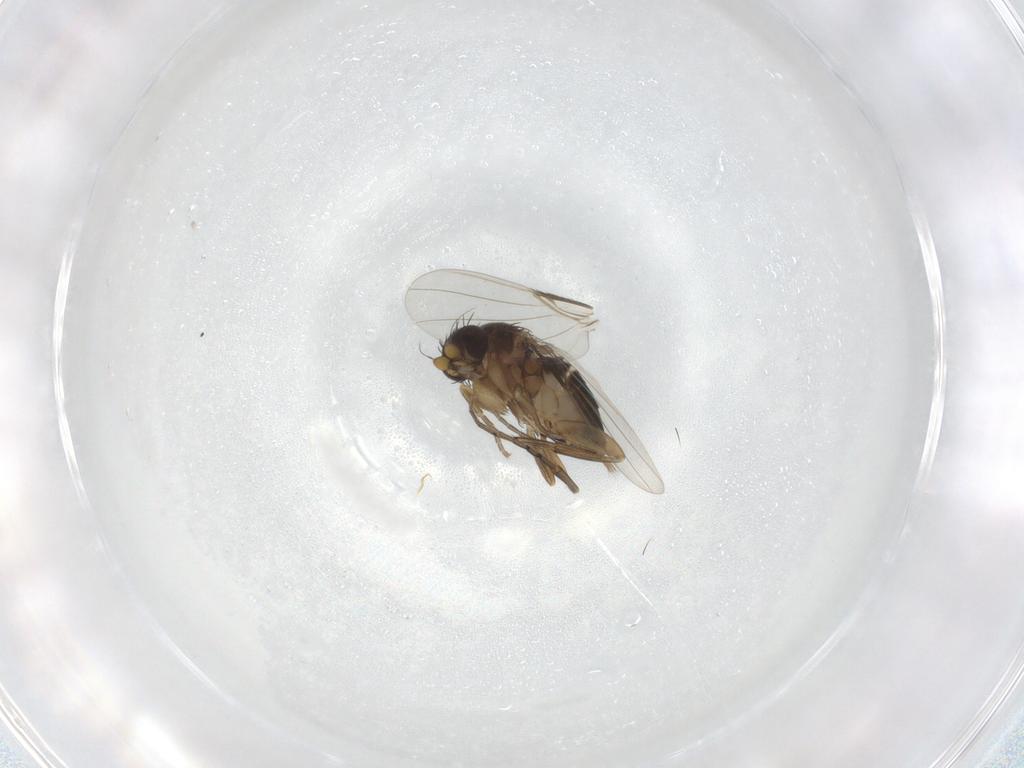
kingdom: Animalia
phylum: Arthropoda
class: Insecta
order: Diptera
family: Phoridae
